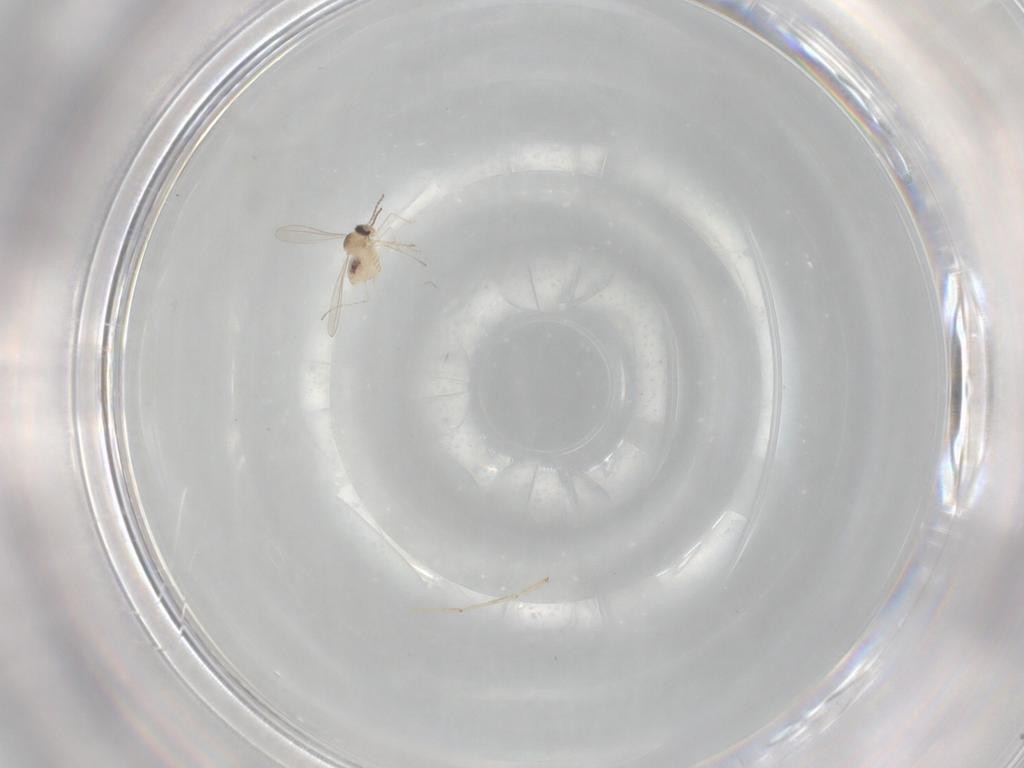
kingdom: Animalia
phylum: Arthropoda
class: Insecta
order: Diptera
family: Cecidomyiidae
